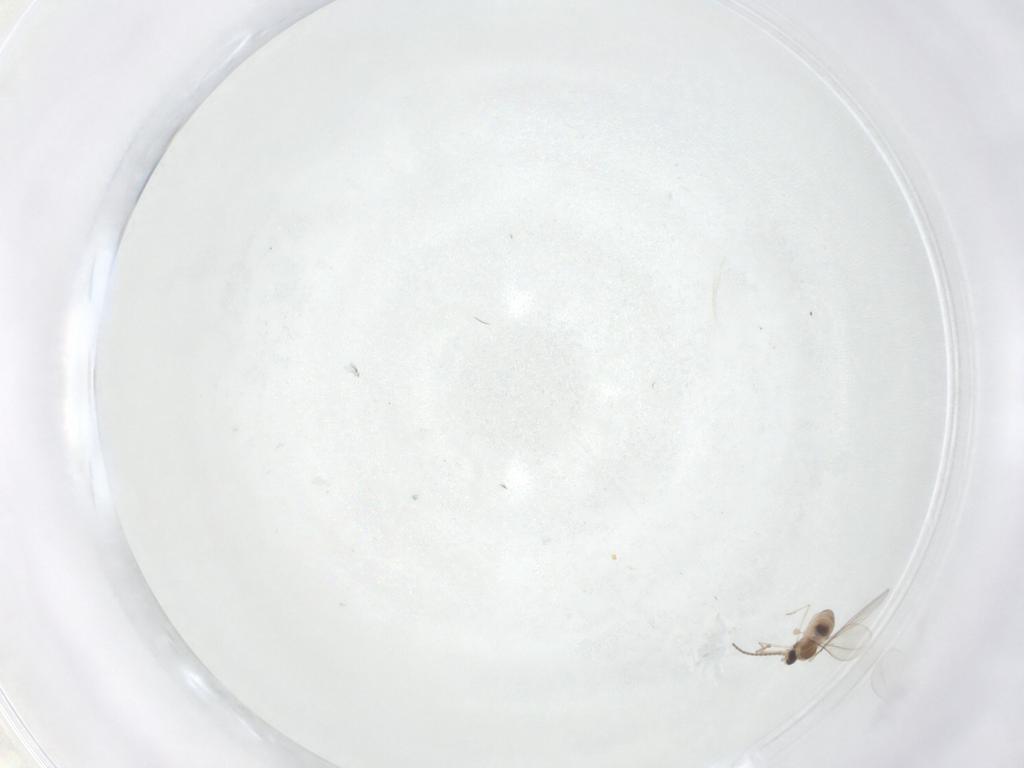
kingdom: Animalia
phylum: Arthropoda
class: Insecta
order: Diptera
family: Cecidomyiidae
